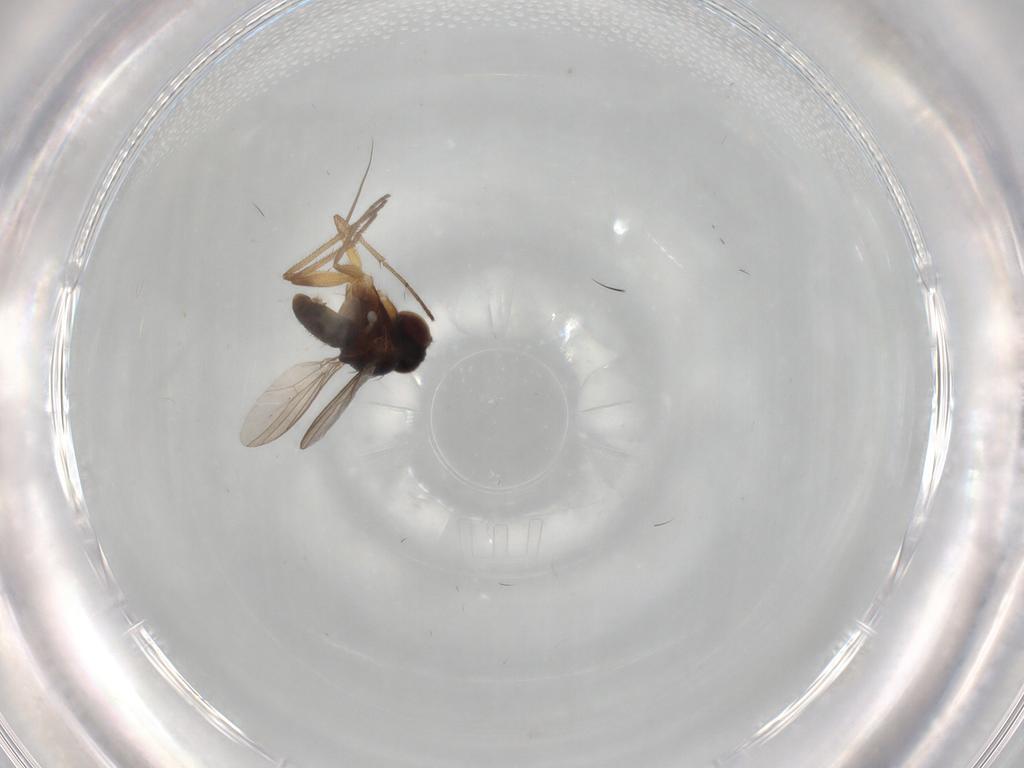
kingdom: Animalia
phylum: Arthropoda
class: Insecta
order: Diptera
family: Dolichopodidae
